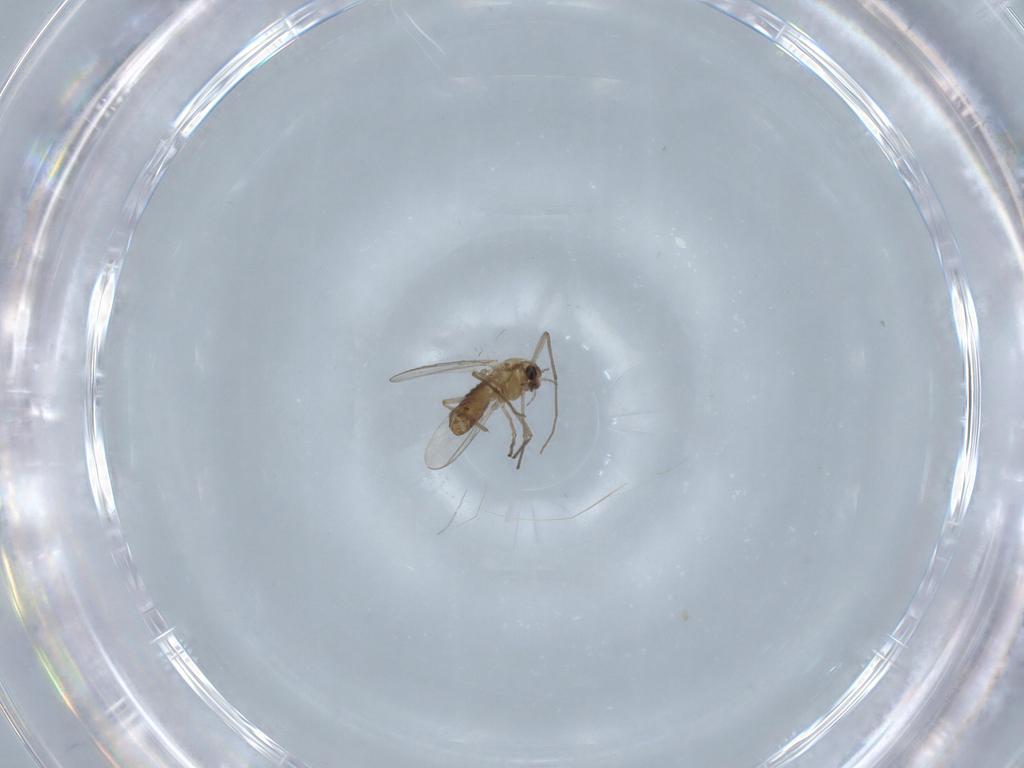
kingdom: Animalia
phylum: Arthropoda
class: Insecta
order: Diptera
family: Chironomidae
